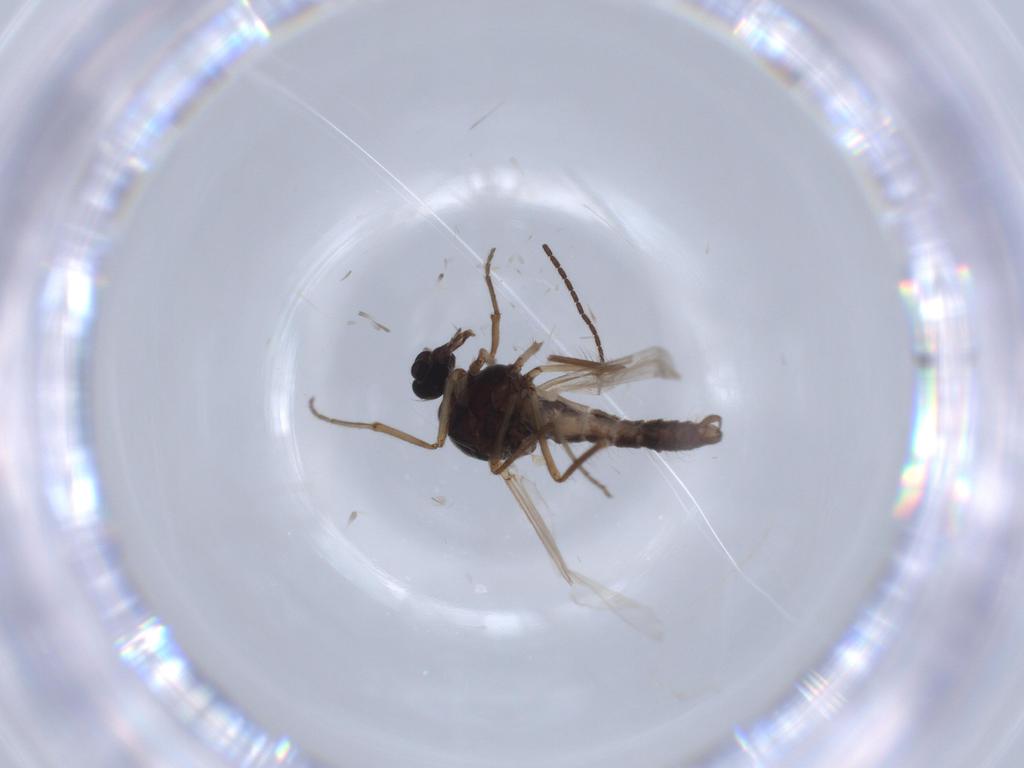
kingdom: Animalia
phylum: Arthropoda
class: Insecta
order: Diptera
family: Ceratopogonidae
